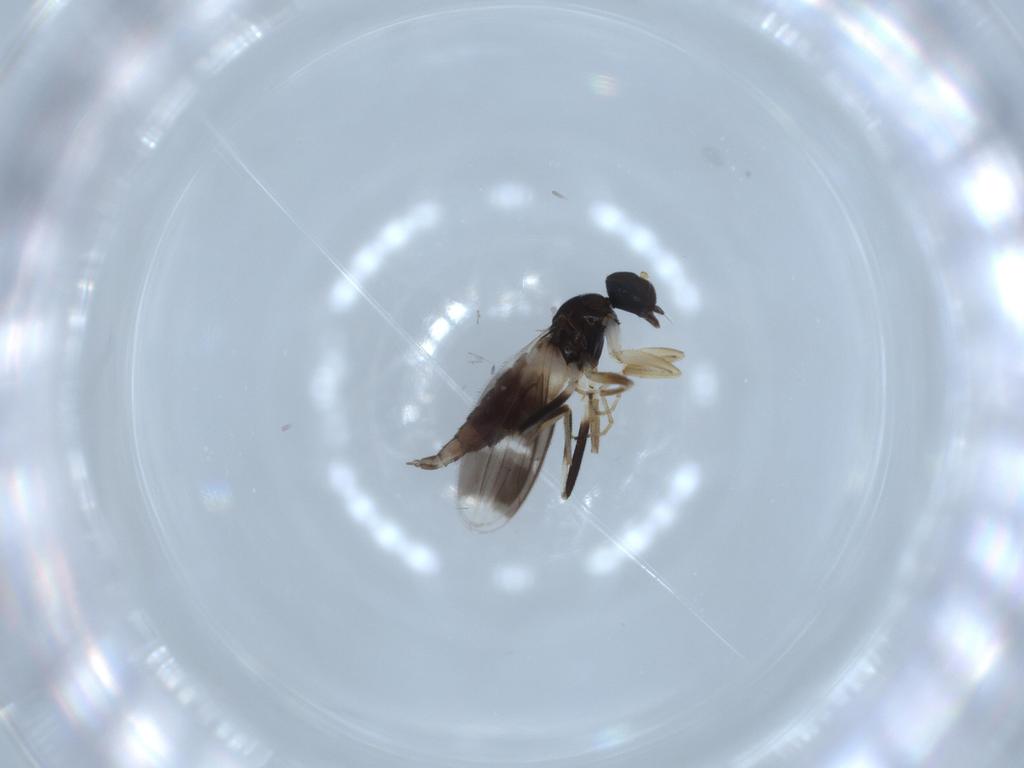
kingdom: Animalia
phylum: Arthropoda
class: Insecta
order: Diptera
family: Hybotidae
